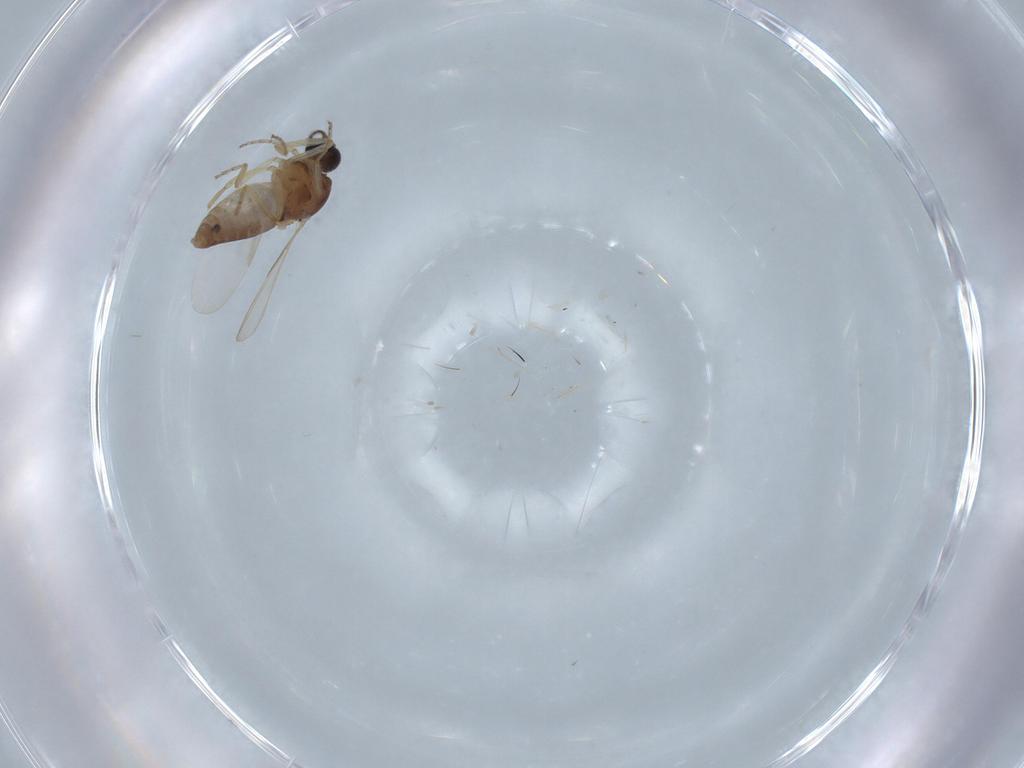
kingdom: Animalia
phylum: Arthropoda
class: Insecta
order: Diptera
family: Ceratopogonidae
